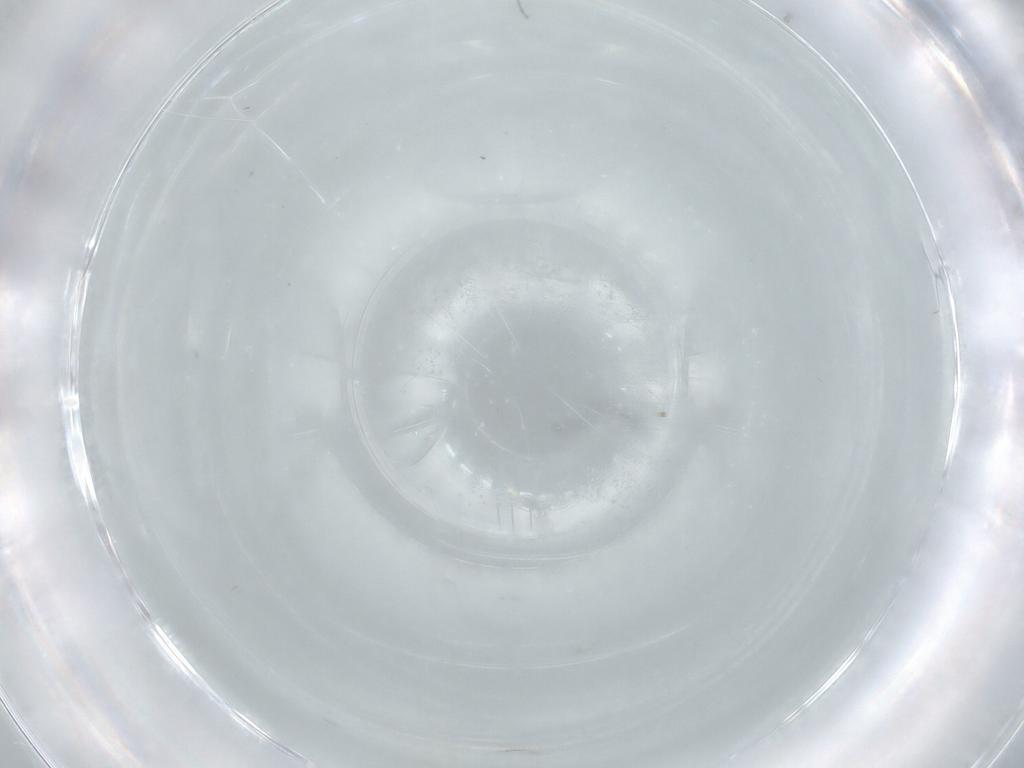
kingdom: Animalia
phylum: Arthropoda
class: Insecta
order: Diptera
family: Cecidomyiidae
